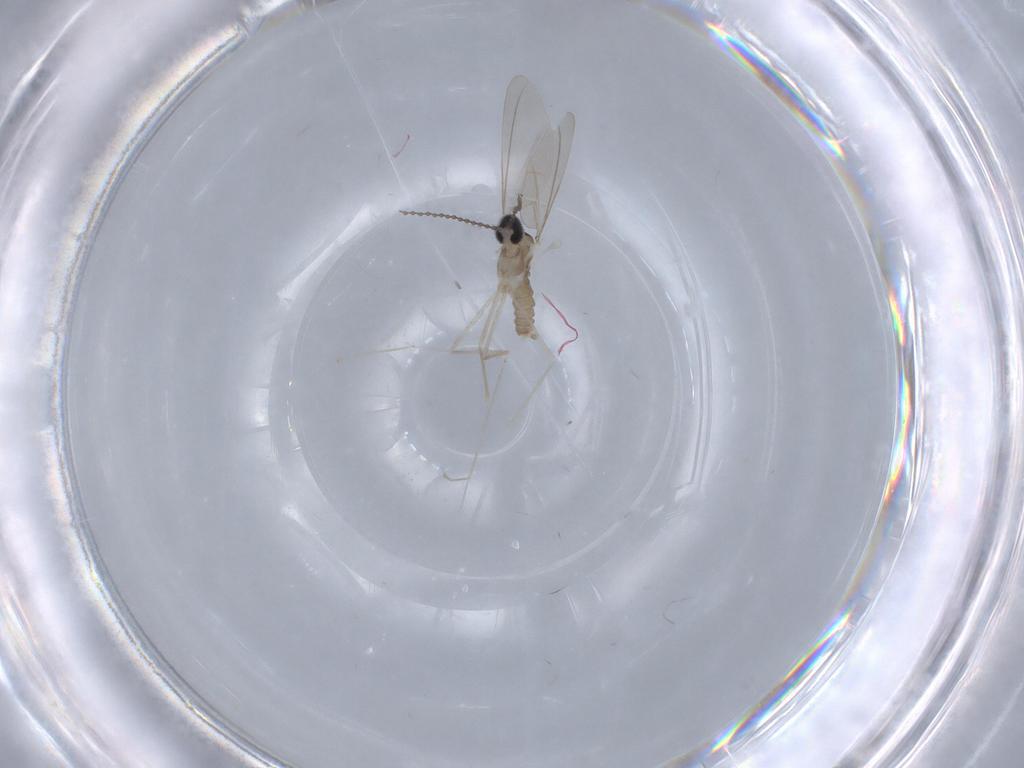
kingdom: Animalia
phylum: Arthropoda
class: Insecta
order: Diptera
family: Cecidomyiidae
